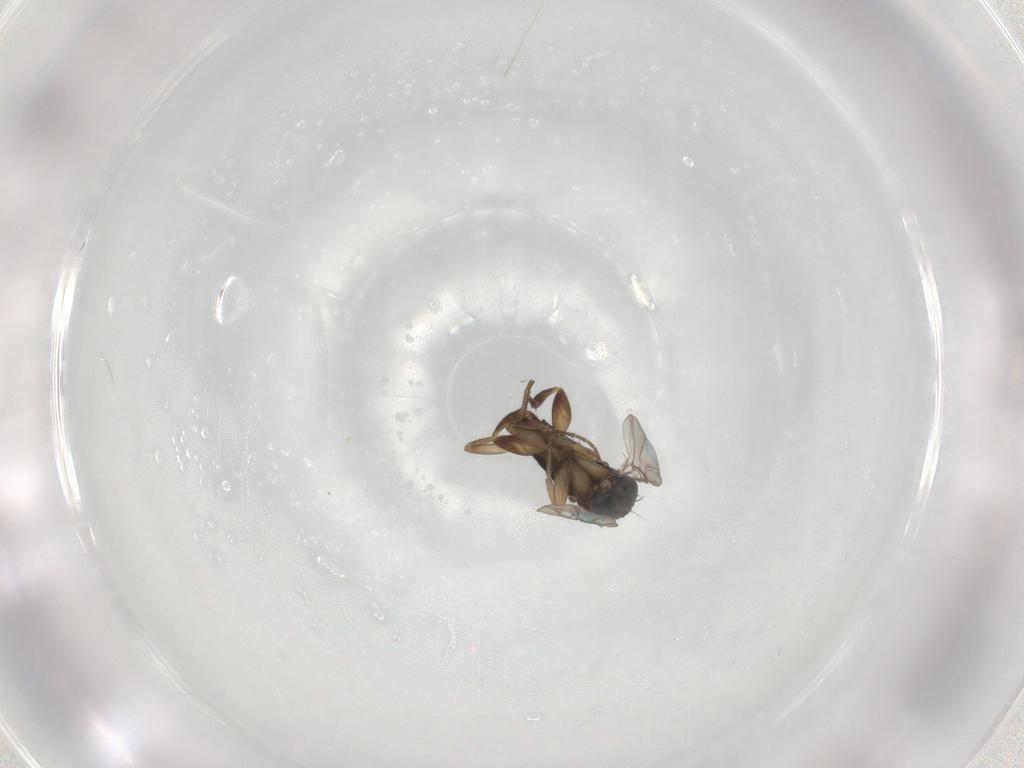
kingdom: Animalia
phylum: Arthropoda
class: Insecta
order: Diptera
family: Phoridae
